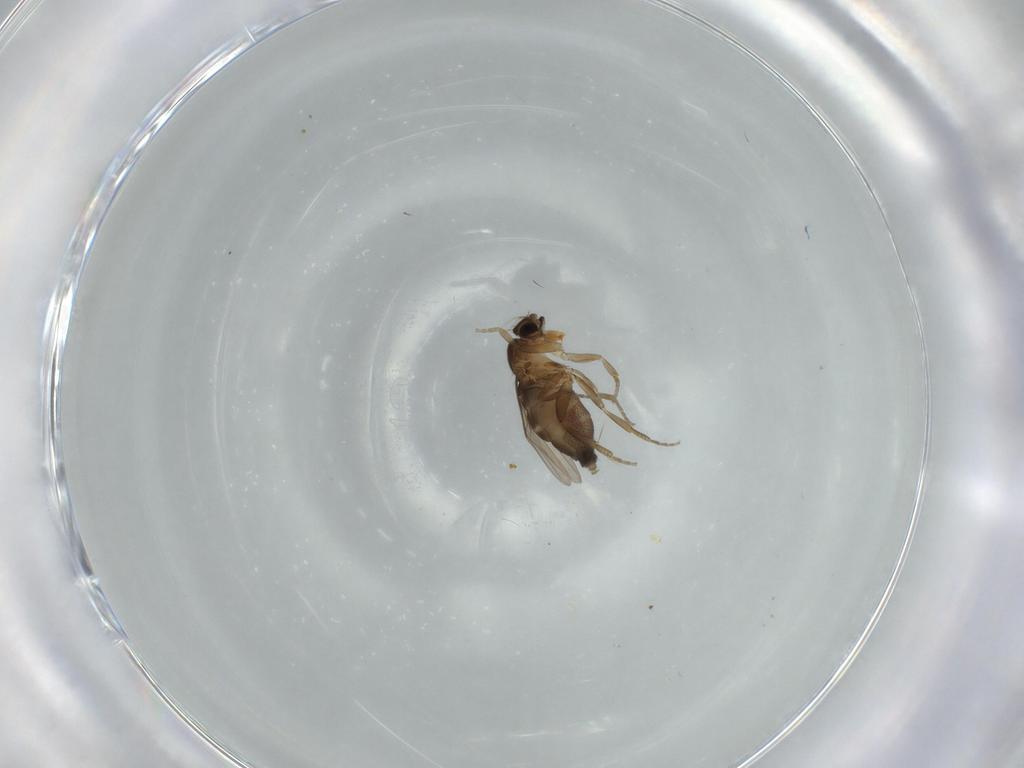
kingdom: Animalia
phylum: Arthropoda
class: Insecta
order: Diptera
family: Phoridae
